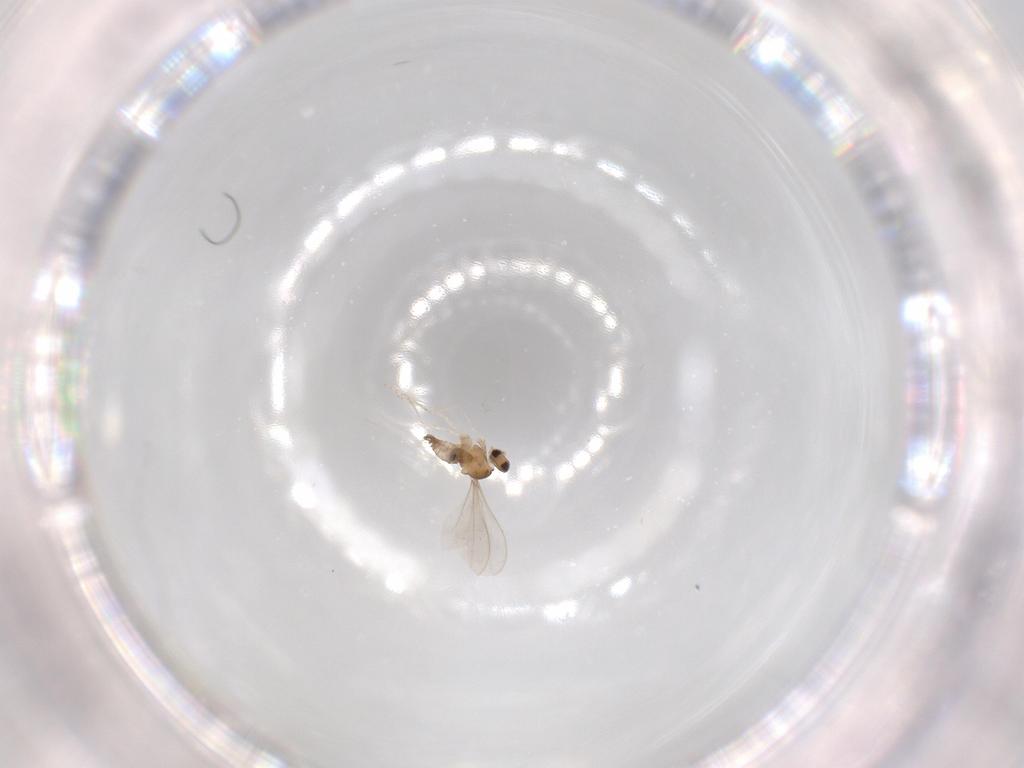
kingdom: Animalia
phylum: Arthropoda
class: Insecta
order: Diptera
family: Cecidomyiidae
